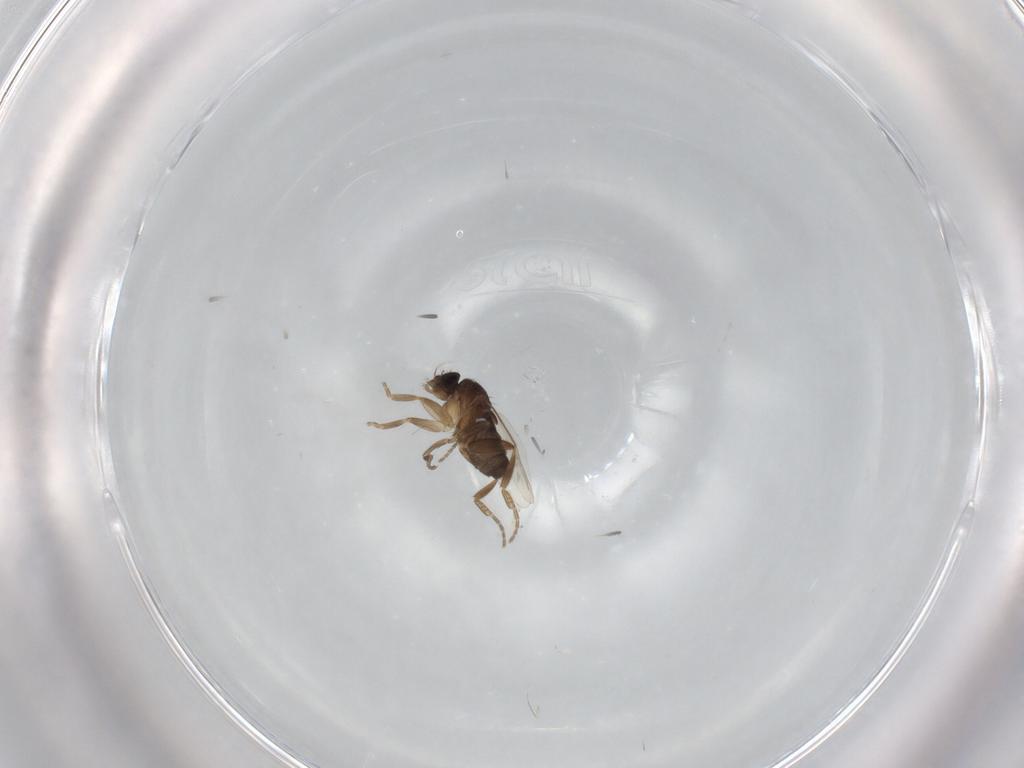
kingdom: Animalia
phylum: Arthropoda
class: Insecta
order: Diptera
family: Phoridae
